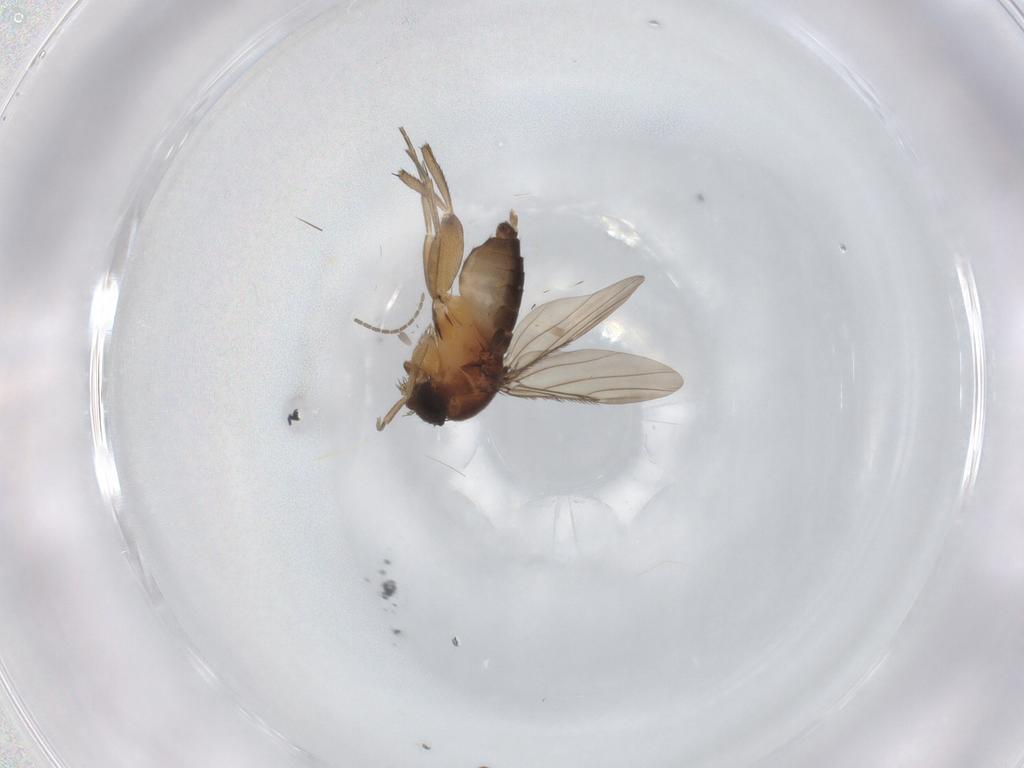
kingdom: Animalia
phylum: Arthropoda
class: Insecta
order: Diptera
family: Phoridae
